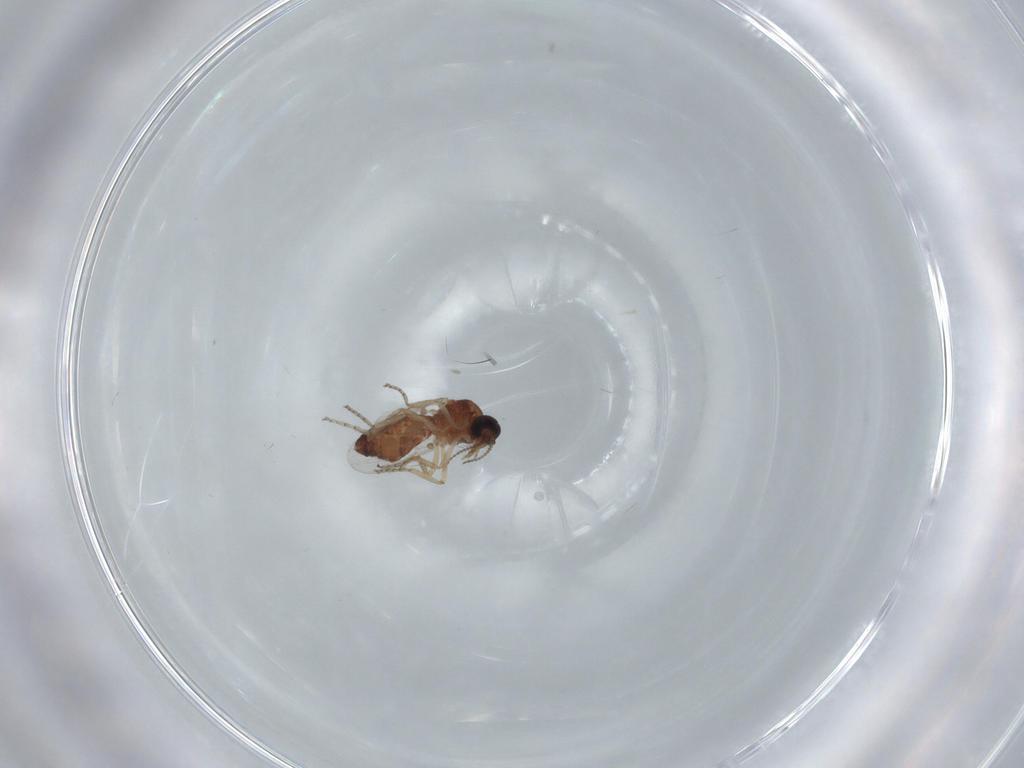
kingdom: Animalia
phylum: Arthropoda
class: Insecta
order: Diptera
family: Ceratopogonidae
